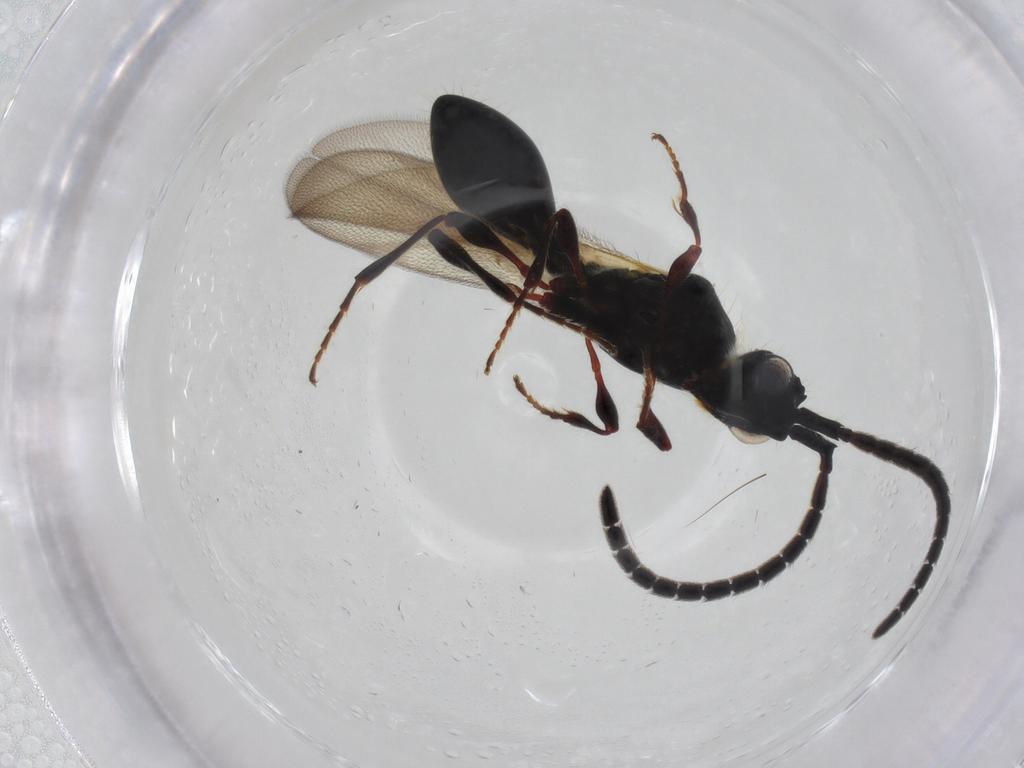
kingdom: Animalia
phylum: Arthropoda
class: Insecta
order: Hymenoptera
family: Diapriidae
